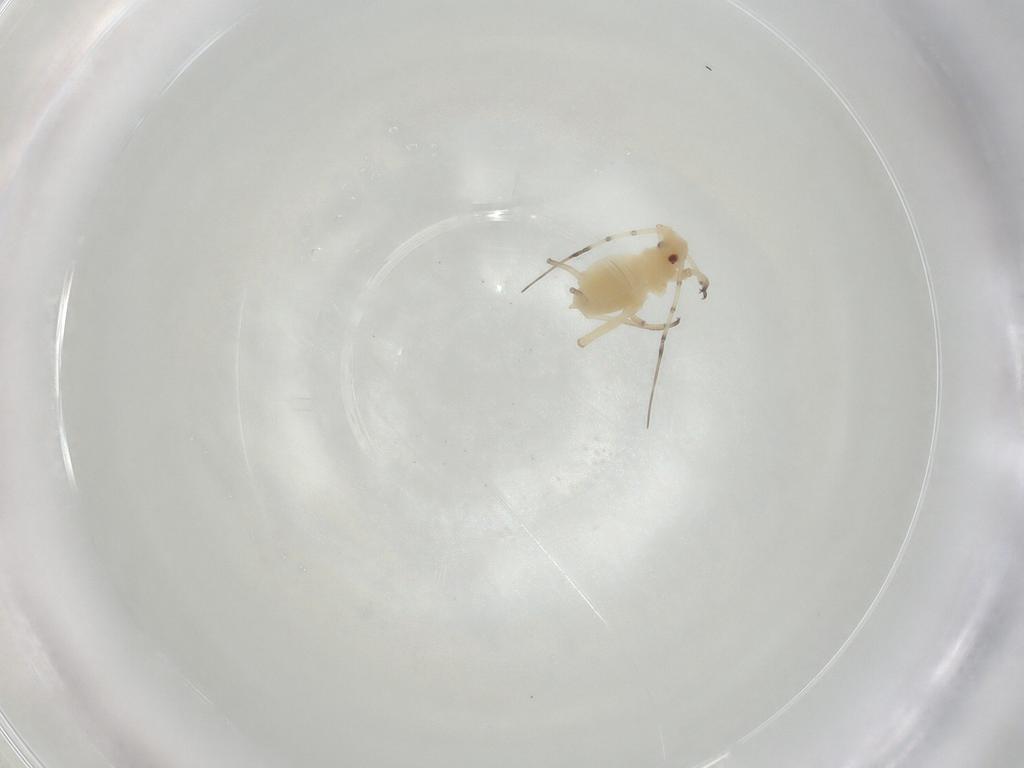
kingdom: Animalia
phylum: Arthropoda
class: Insecta
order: Hemiptera
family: Aphididae
